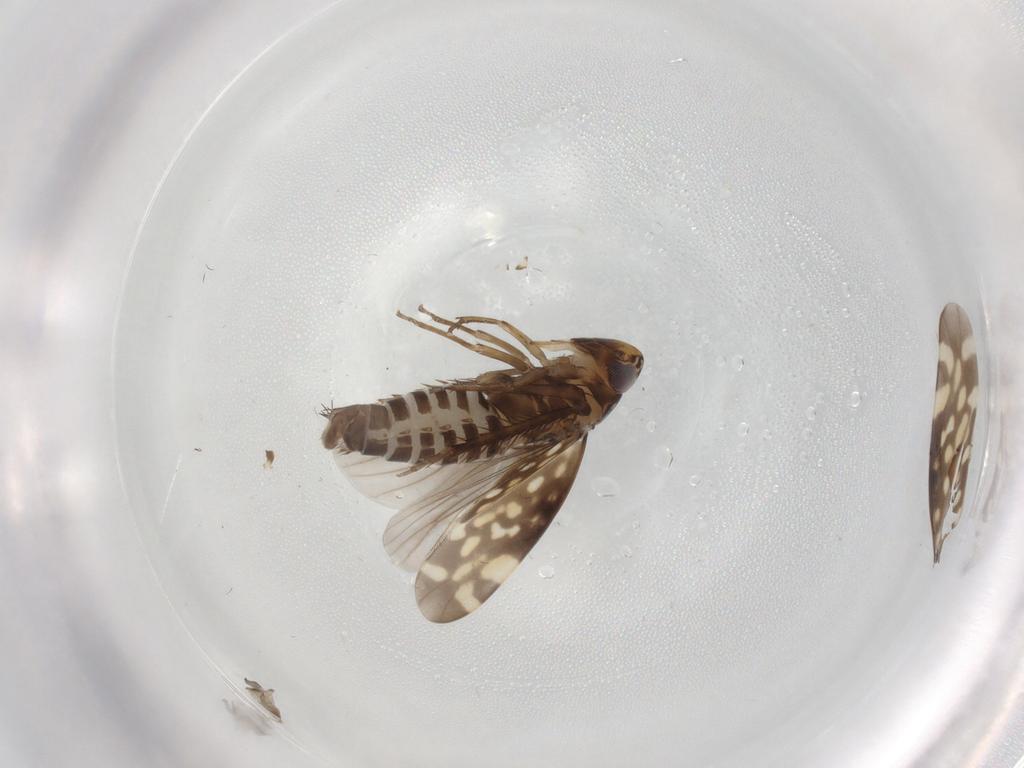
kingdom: Animalia
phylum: Arthropoda
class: Insecta
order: Hemiptera
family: Cicadellidae
